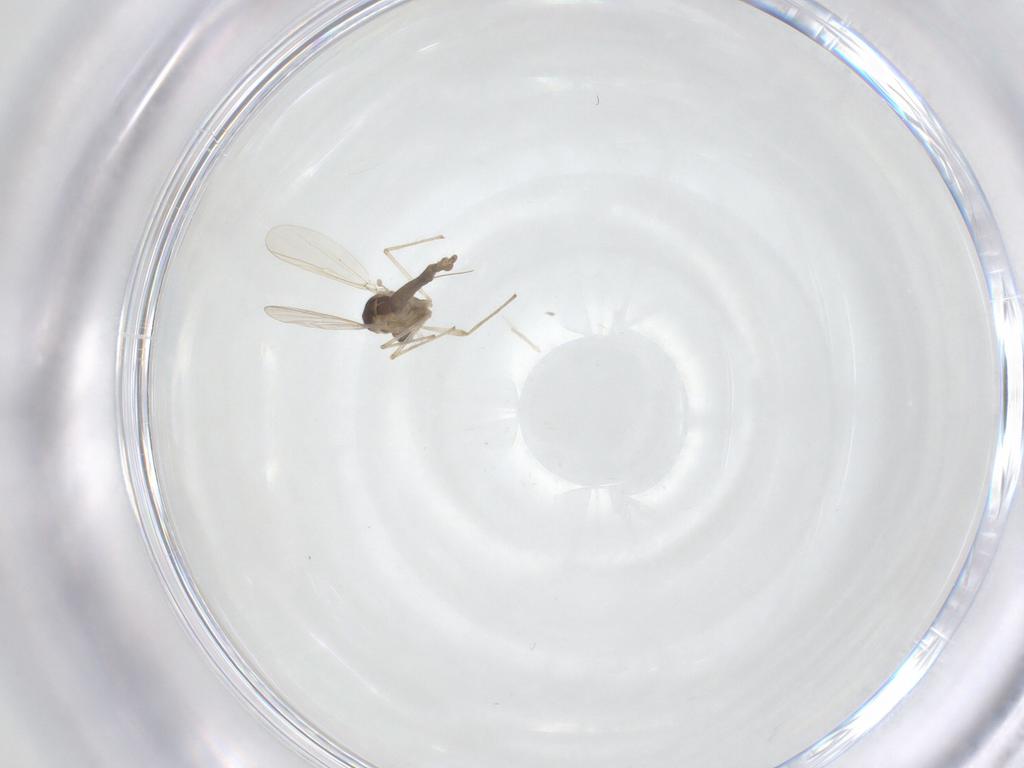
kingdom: Animalia
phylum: Arthropoda
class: Insecta
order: Diptera
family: Chironomidae
